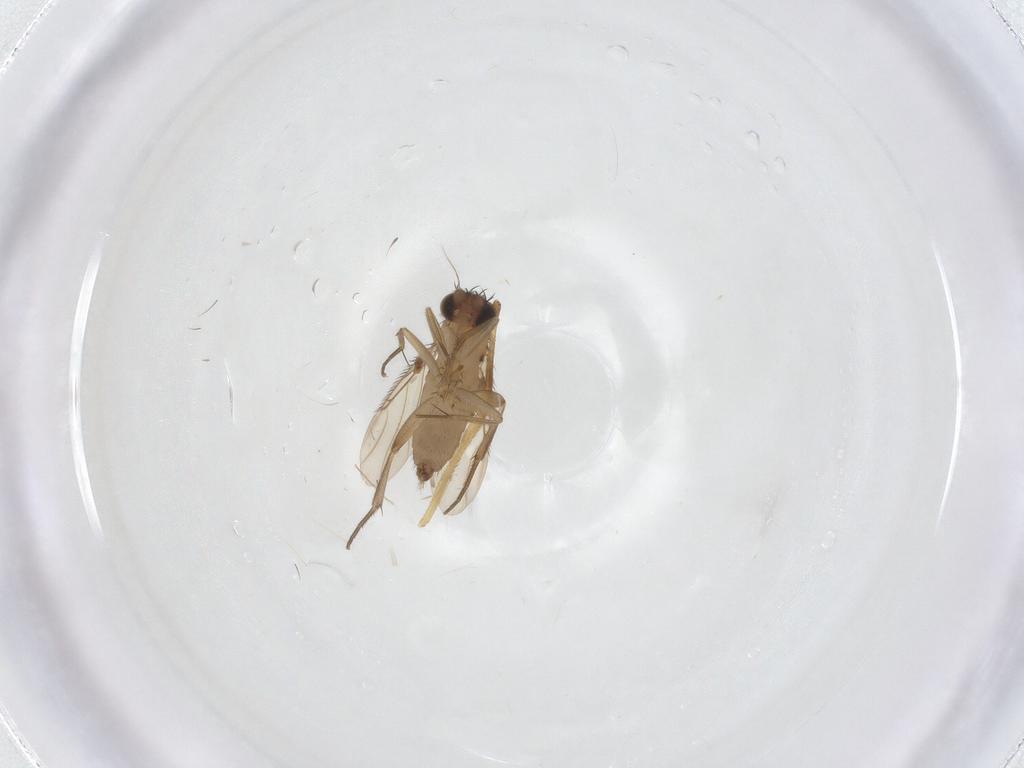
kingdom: Animalia
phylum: Arthropoda
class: Insecta
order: Diptera
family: Phoridae
